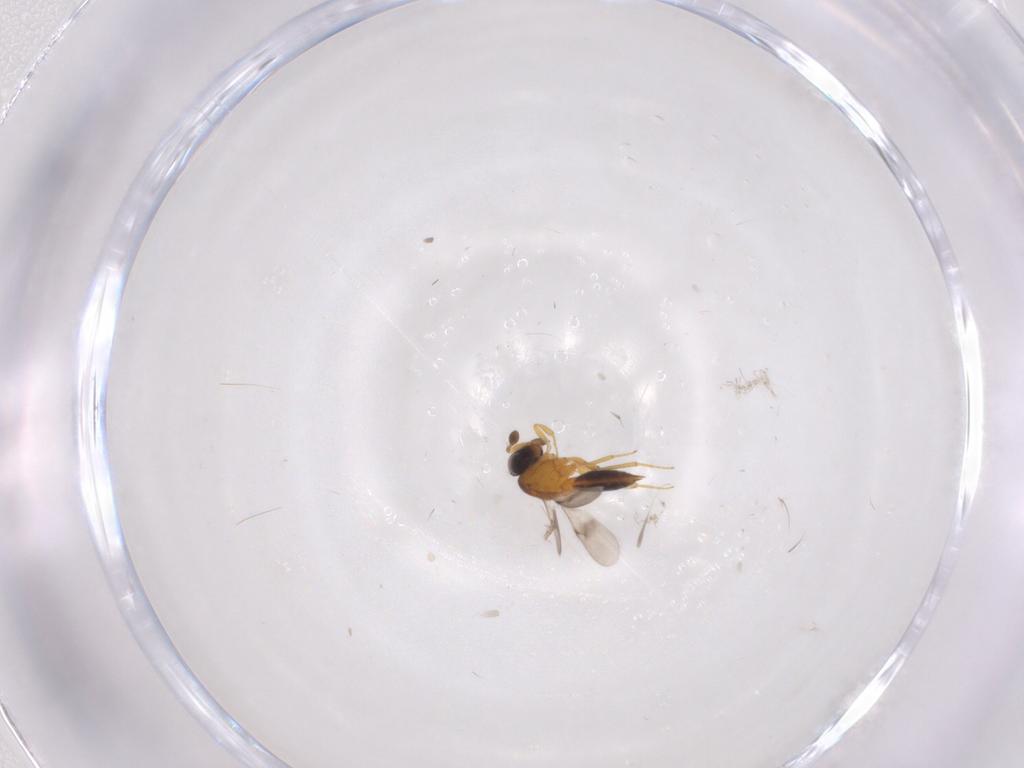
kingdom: Animalia
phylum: Arthropoda
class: Insecta
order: Hymenoptera
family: Scelionidae
